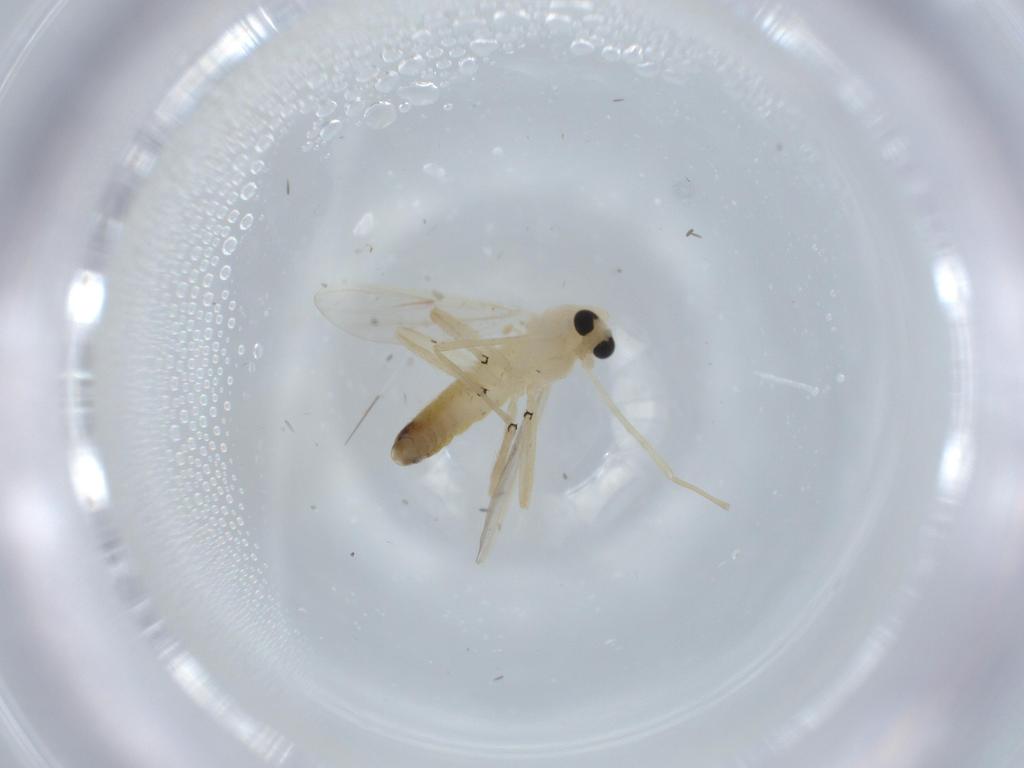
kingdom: Animalia
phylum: Arthropoda
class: Insecta
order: Diptera
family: Chironomidae
